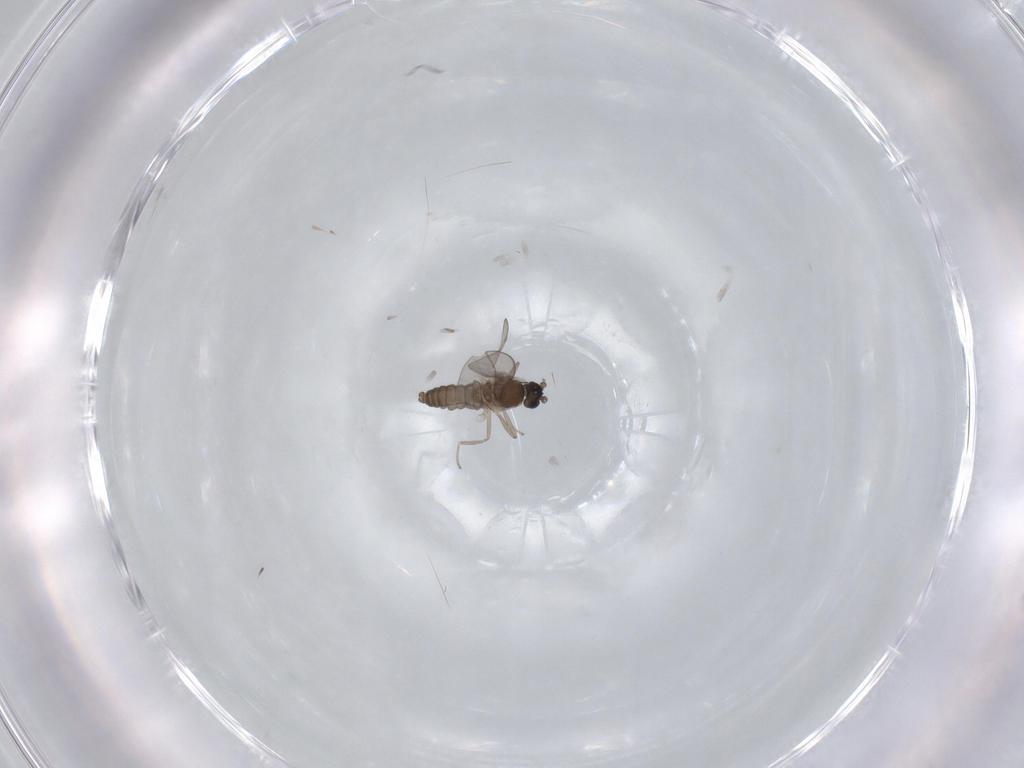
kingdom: Animalia
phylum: Arthropoda
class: Insecta
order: Diptera
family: Cecidomyiidae
